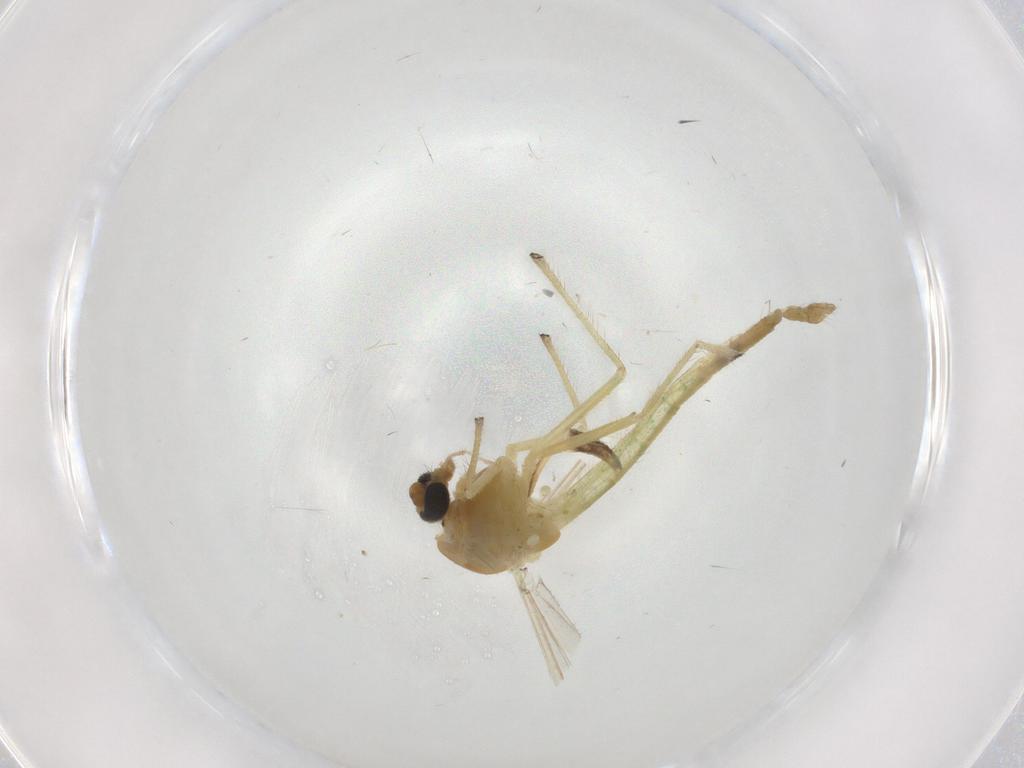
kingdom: Animalia
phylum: Arthropoda
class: Insecta
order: Diptera
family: Chironomidae
